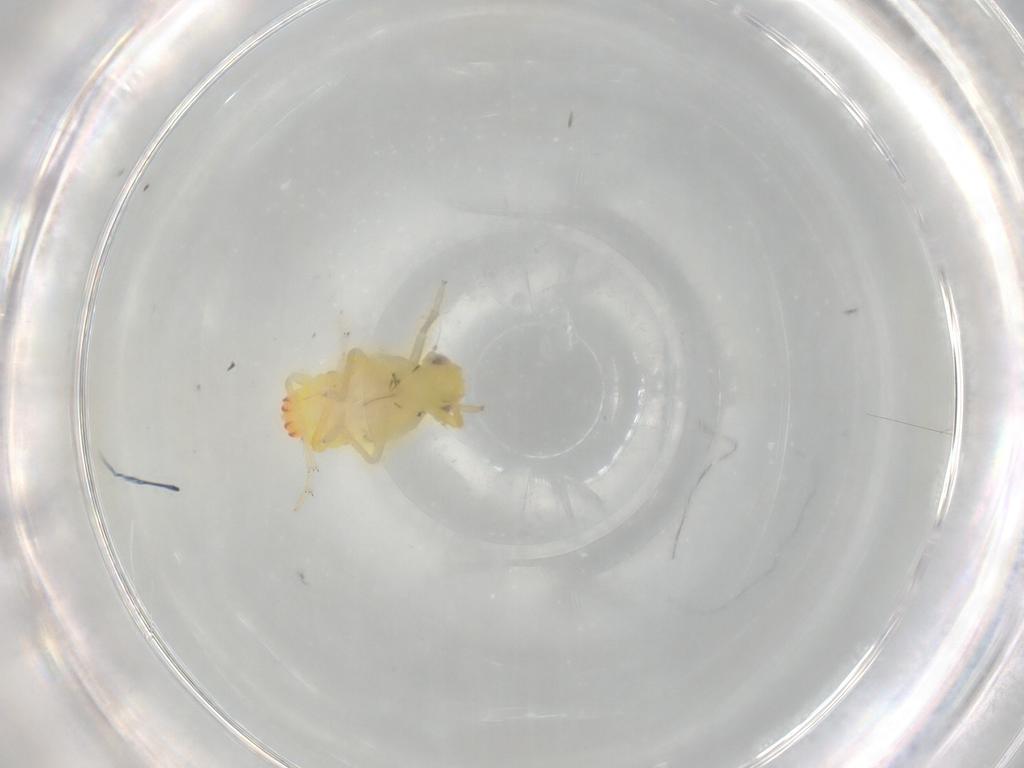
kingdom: Animalia
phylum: Arthropoda
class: Insecta
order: Hemiptera
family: Tropiduchidae
